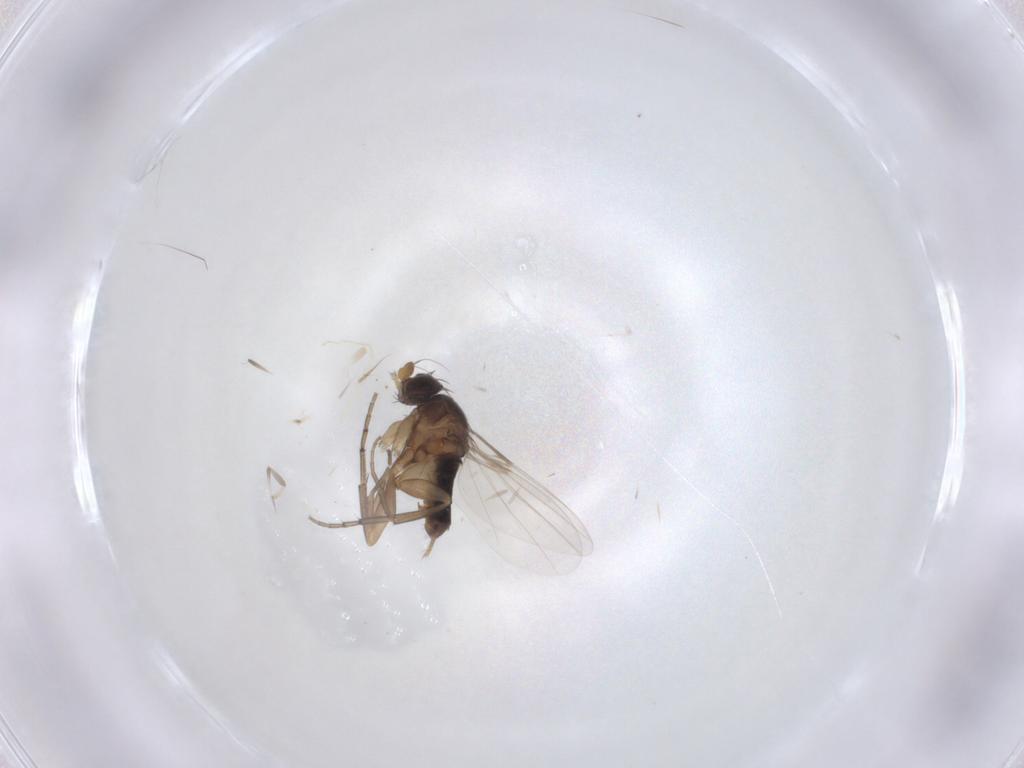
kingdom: Animalia
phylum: Arthropoda
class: Insecta
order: Diptera
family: Phoridae
